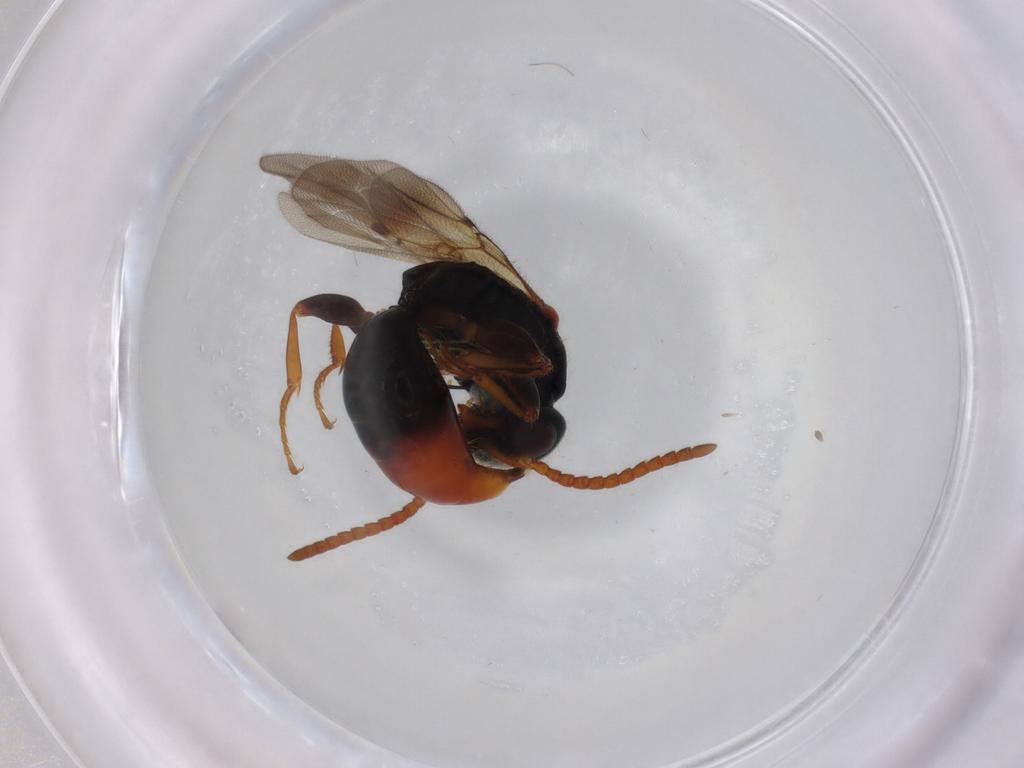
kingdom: Animalia
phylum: Arthropoda
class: Insecta
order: Hymenoptera
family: Bethylidae
